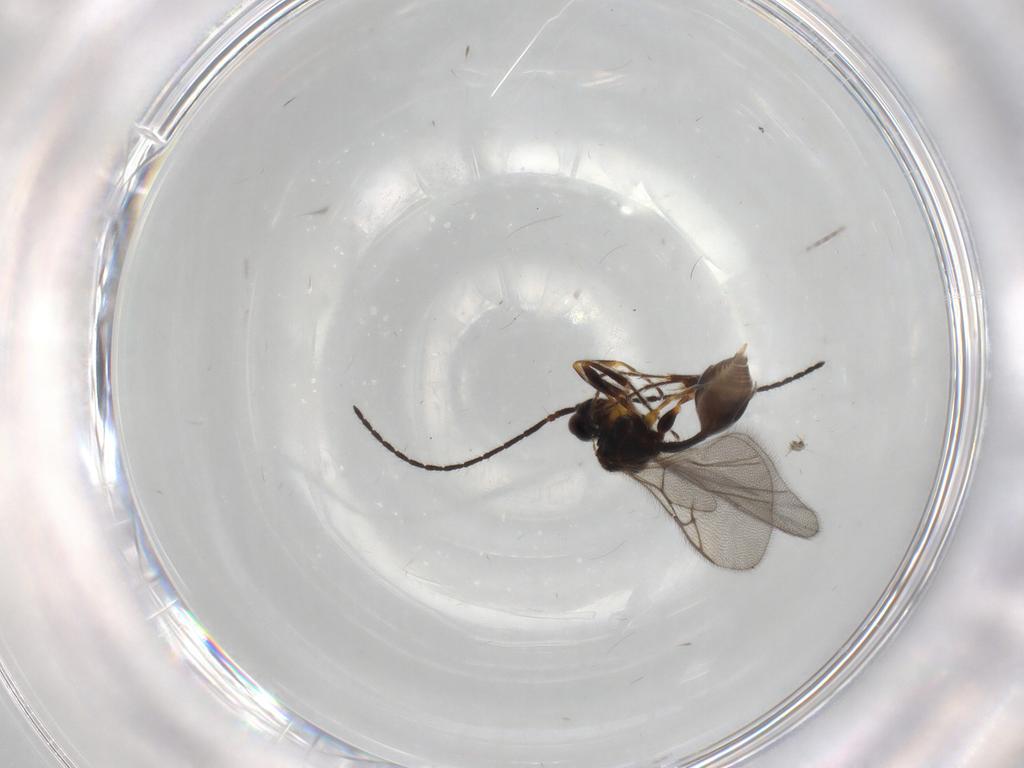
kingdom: Animalia
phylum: Arthropoda
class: Insecta
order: Hymenoptera
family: Diapriidae
